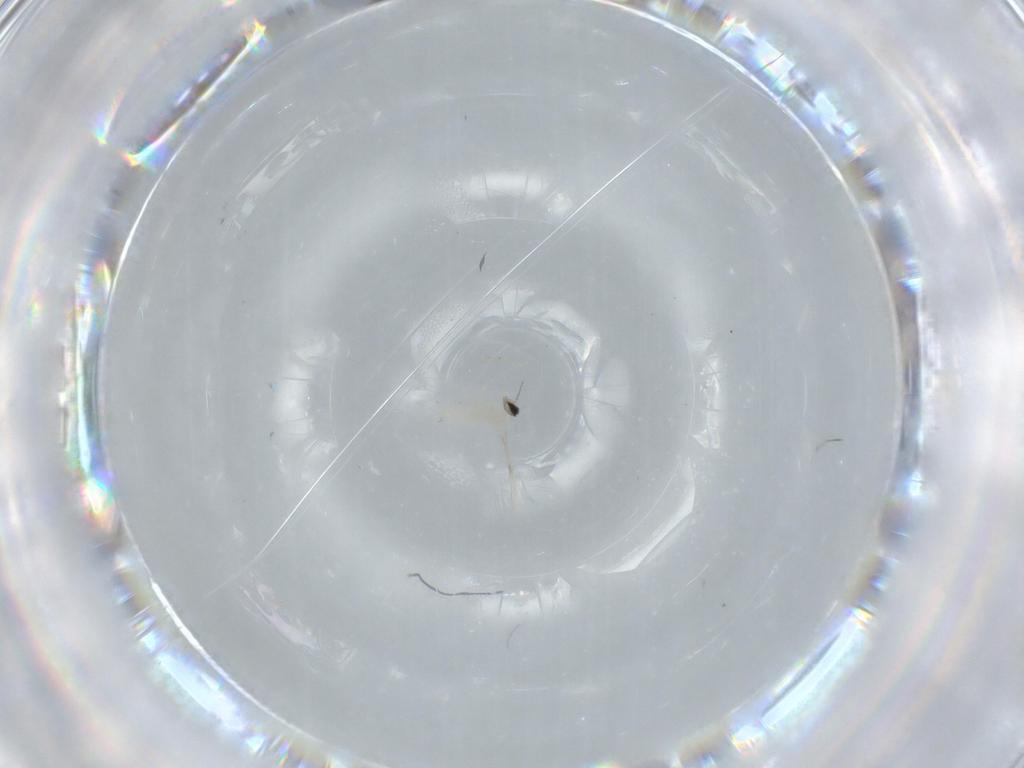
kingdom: Animalia
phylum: Arthropoda
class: Insecta
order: Diptera
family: Cecidomyiidae
